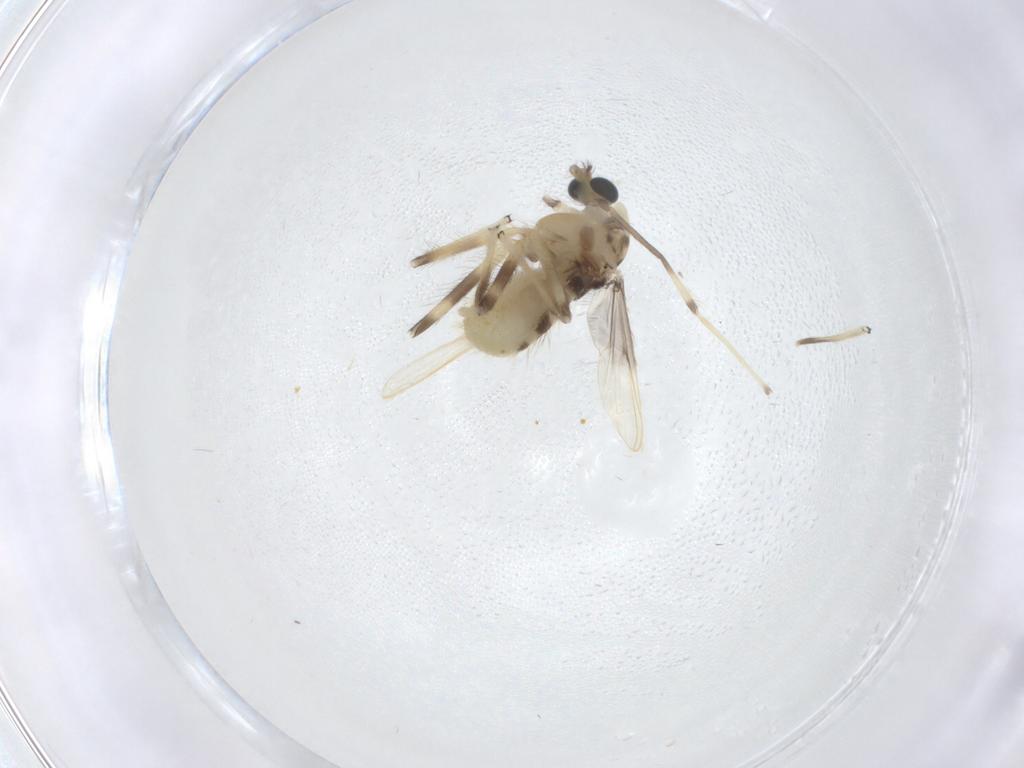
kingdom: Animalia
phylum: Arthropoda
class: Insecta
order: Diptera
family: Chironomidae
